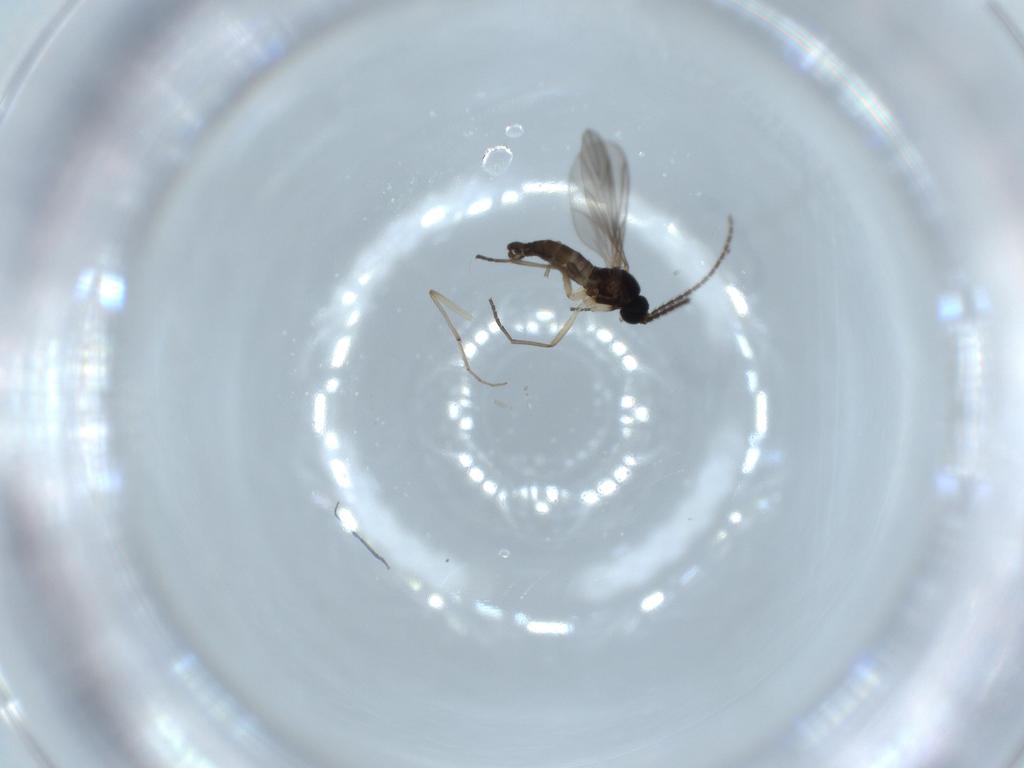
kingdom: Animalia
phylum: Arthropoda
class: Insecta
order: Diptera
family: Sciaridae
